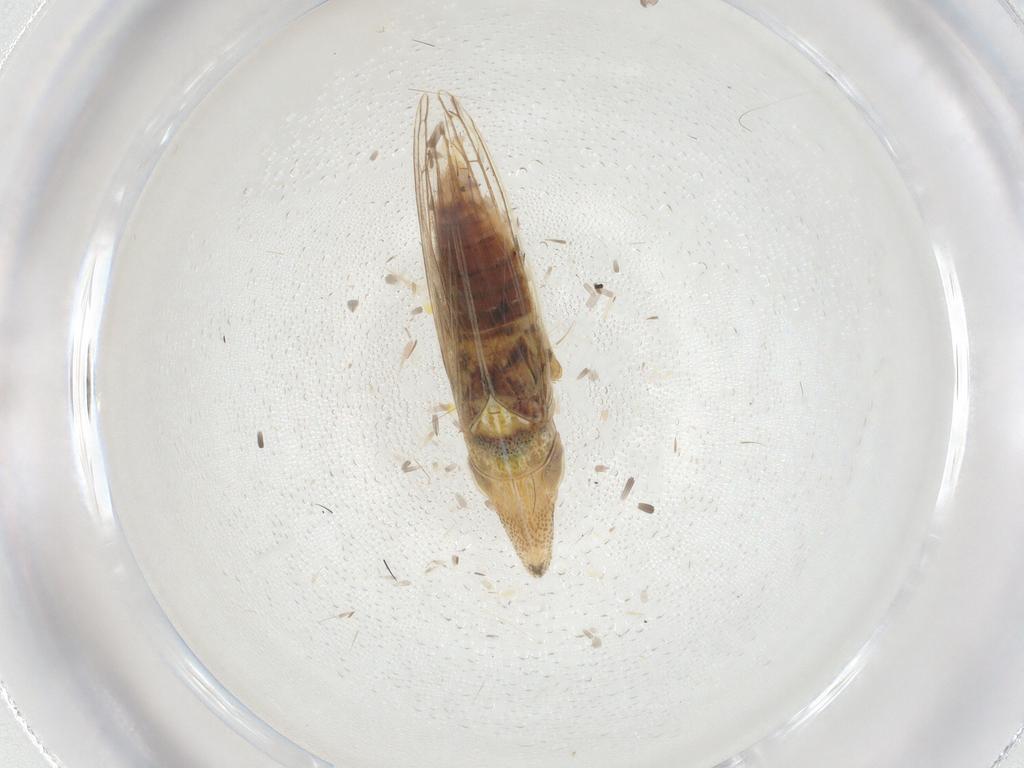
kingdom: Animalia
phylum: Arthropoda
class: Insecta
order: Hemiptera
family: Cicadellidae
